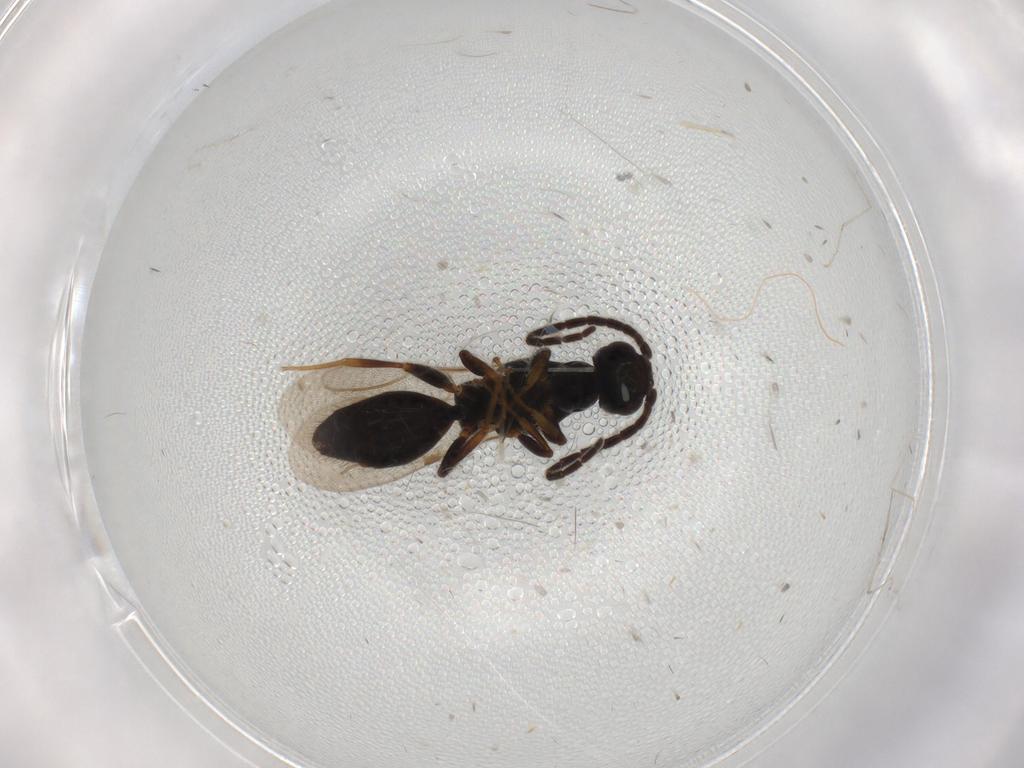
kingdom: Animalia
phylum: Arthropoda
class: Insecta
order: Hymenoptera
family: Bethylidae
